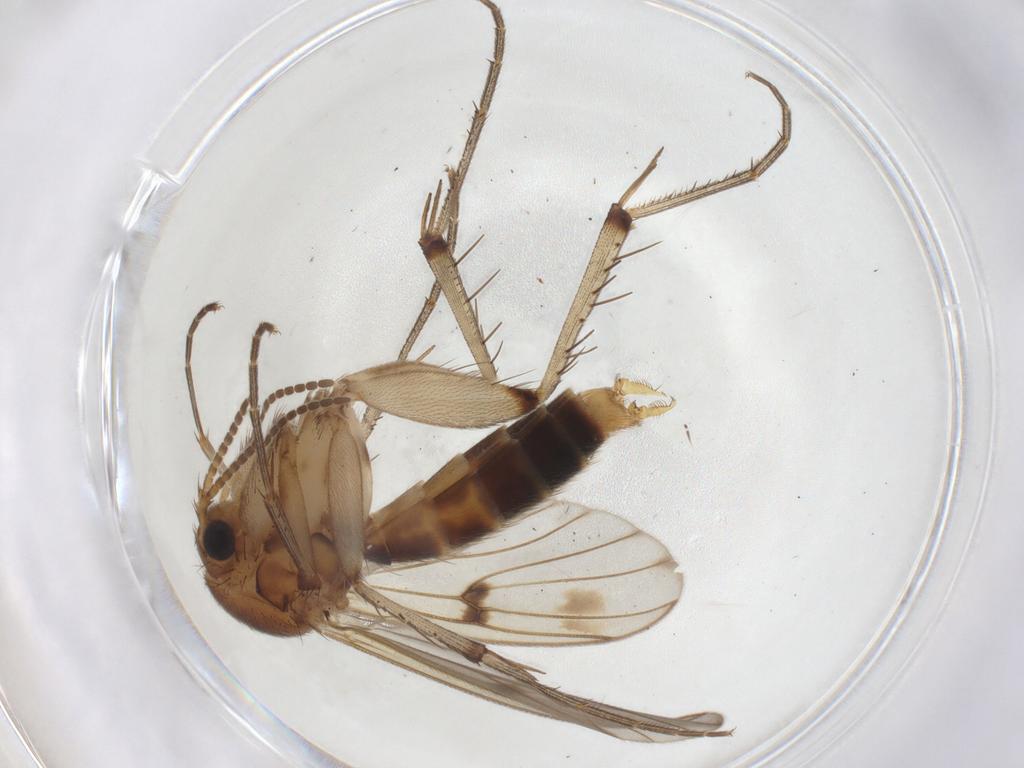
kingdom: Animalia
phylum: Arthropoda
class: Insecta
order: Diptera
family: Mycetophilidae
